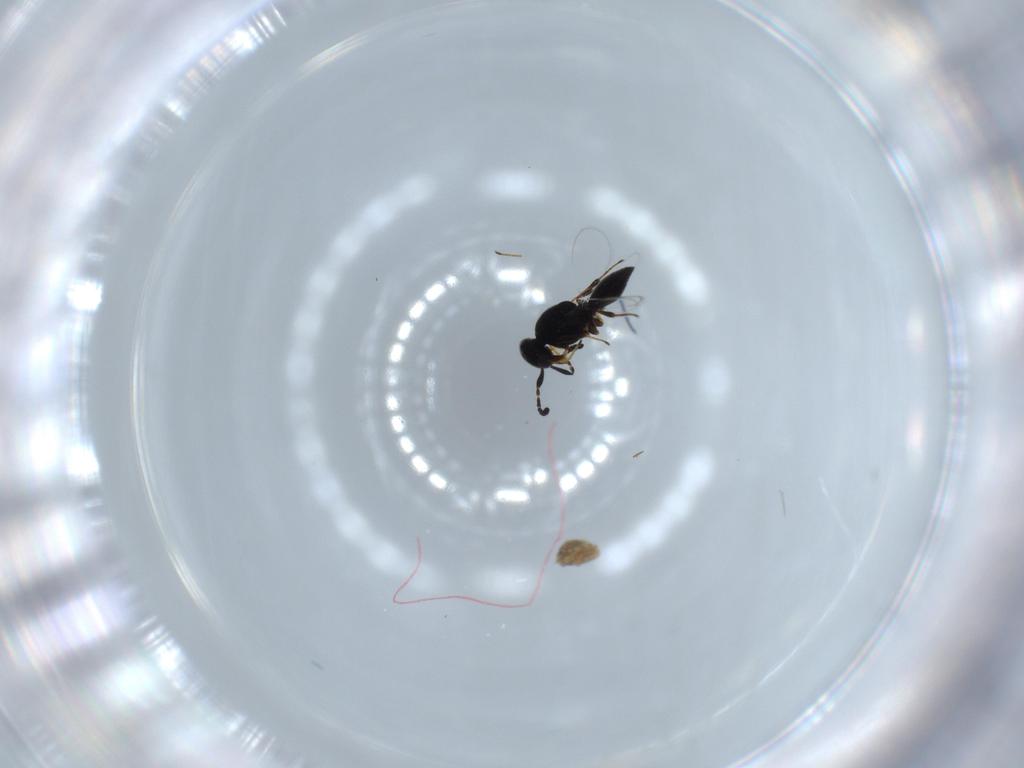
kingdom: Animalia
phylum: Arthropoda
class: Insecta
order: Hymenoptera
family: Platygastridae
